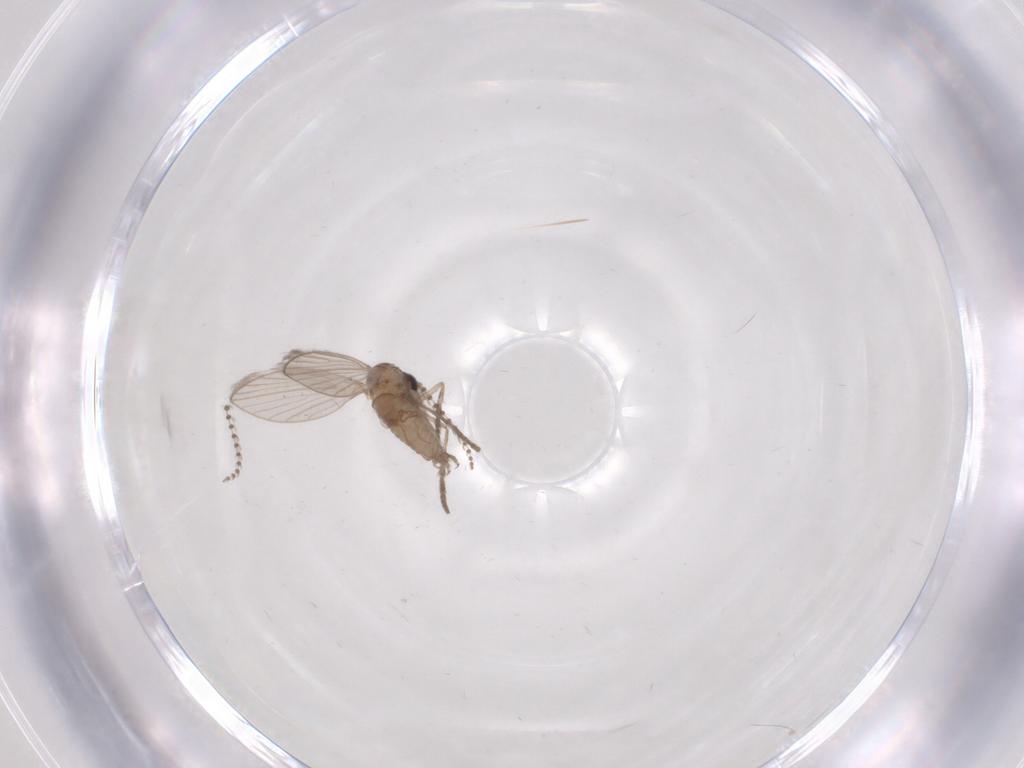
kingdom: Animalia
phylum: Arthropoda
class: Insecta
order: Diptera
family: Psychodidae
